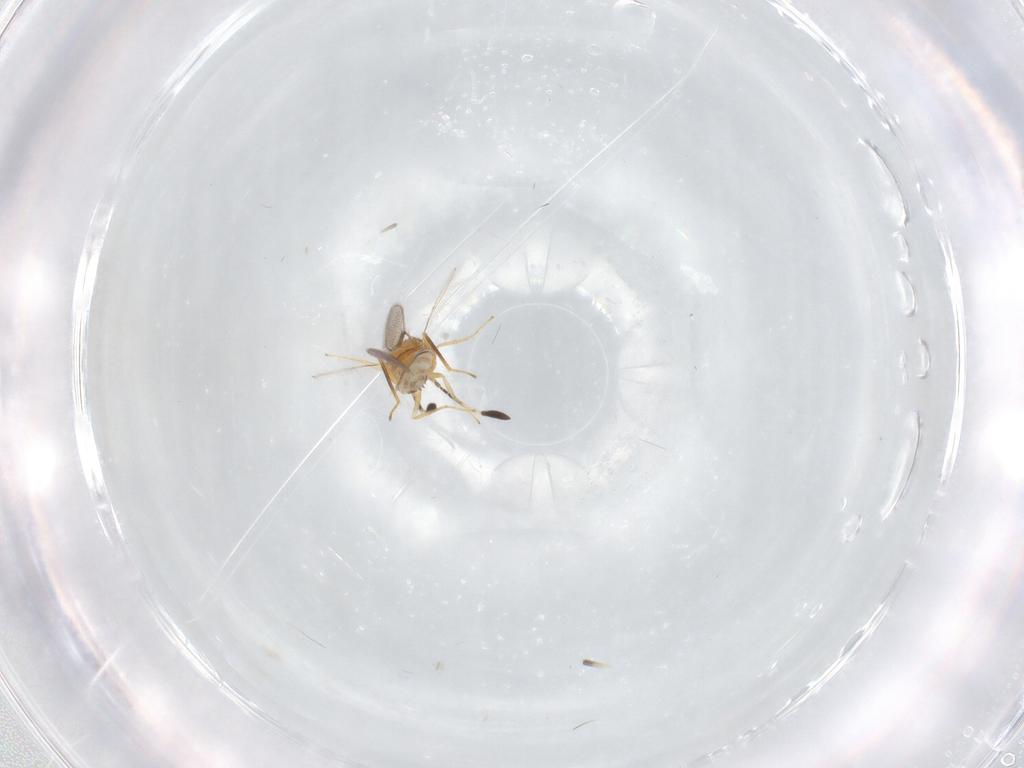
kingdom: Animalia
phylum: Arthropoda
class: Insecta
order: Diptera
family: Chironomidae
